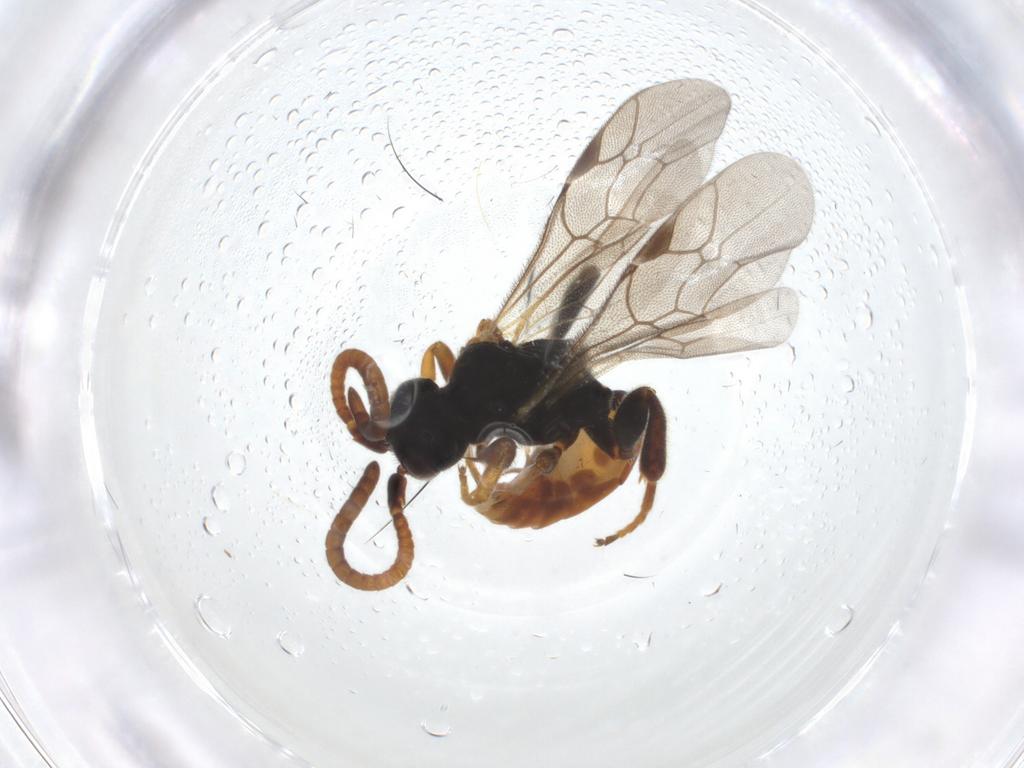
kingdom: Animalia
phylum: Arthropoda
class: Insecta
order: Hymenoptera
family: Ichneumonidae
